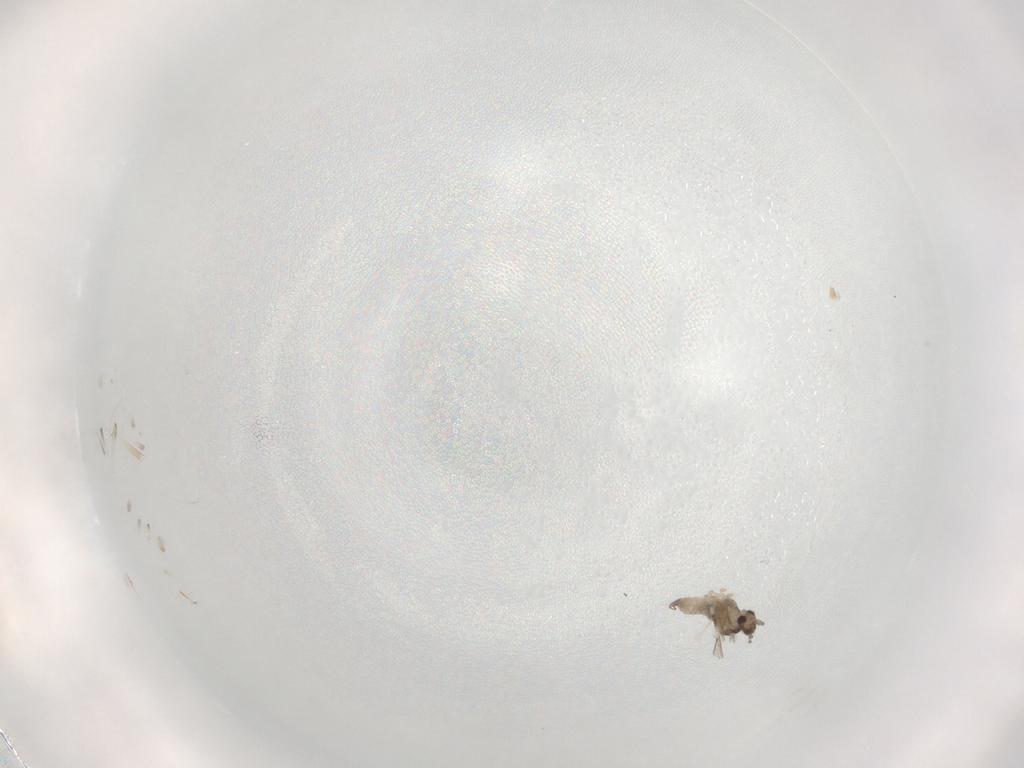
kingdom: Animalia
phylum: Arthropoda
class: Insecta
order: Diptera
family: Cecidomyiidae
